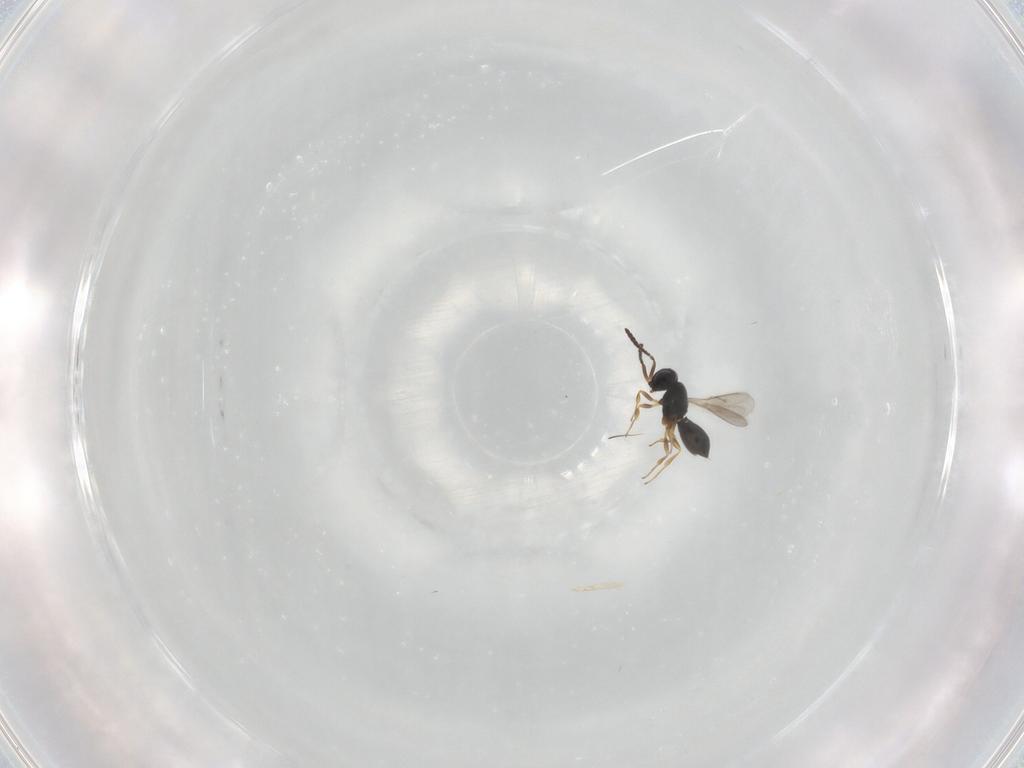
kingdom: Animalia
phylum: Arthropoda
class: Insecta
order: Hymenoptera
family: Scelionidae
